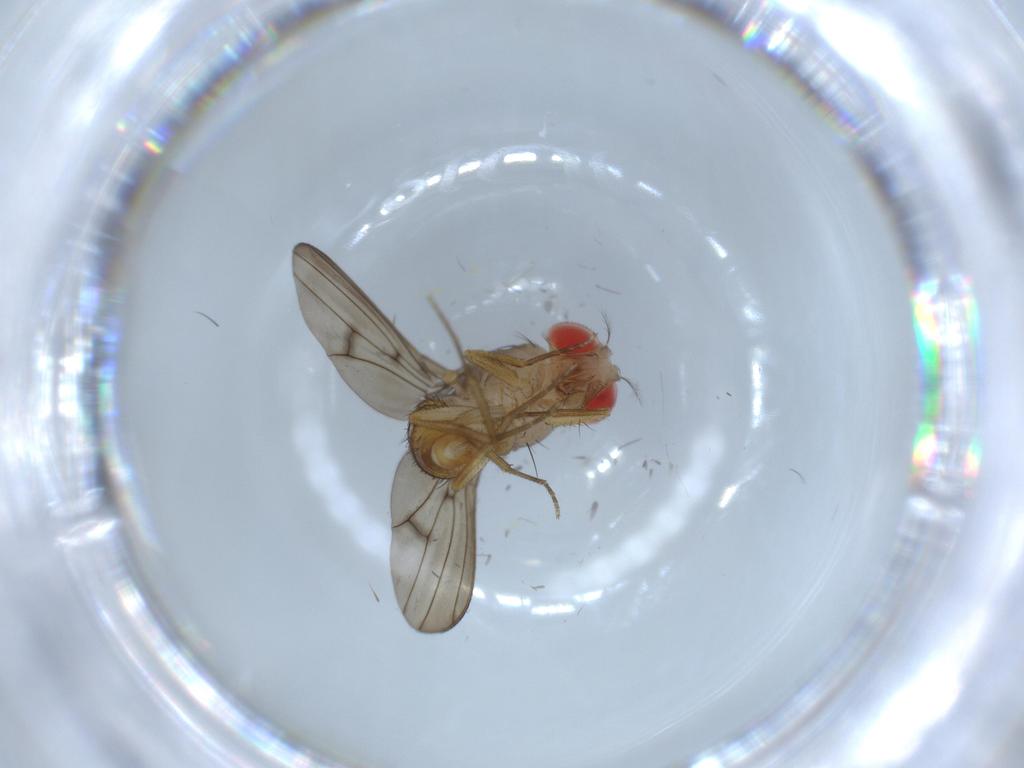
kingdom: Animalia
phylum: Arthropoda
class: Insecta
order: Diptera
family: Drosophilidae
